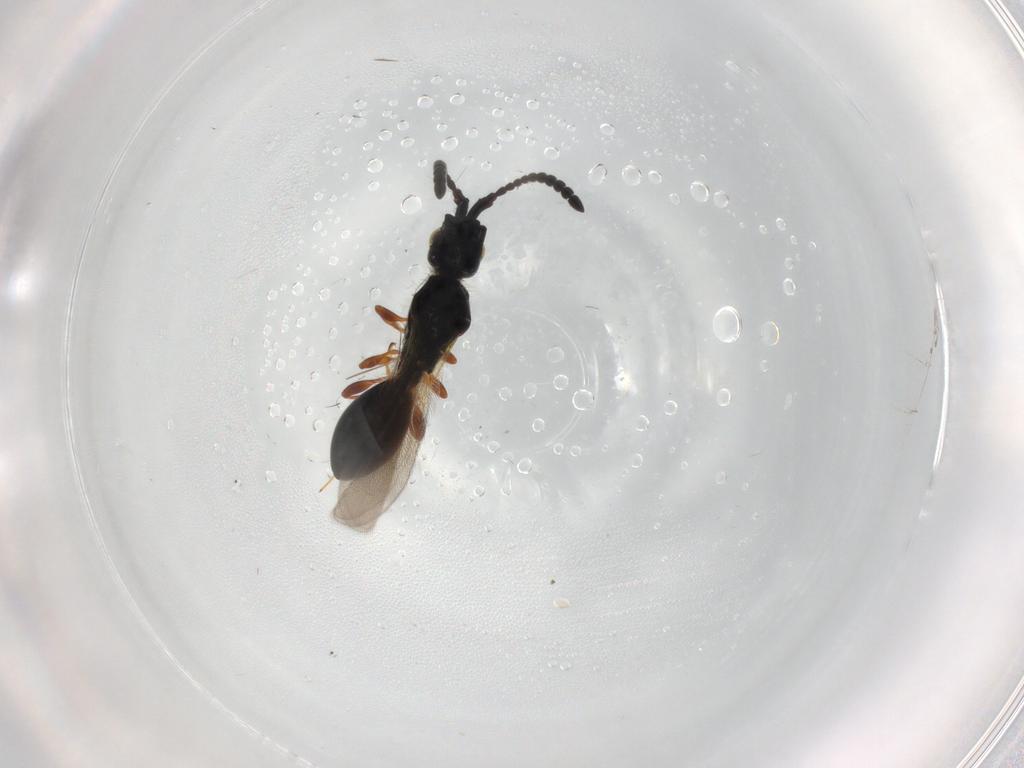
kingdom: Animalia
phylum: Arthropoda
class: Insecta
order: Hymenoptera
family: Diapriidae
